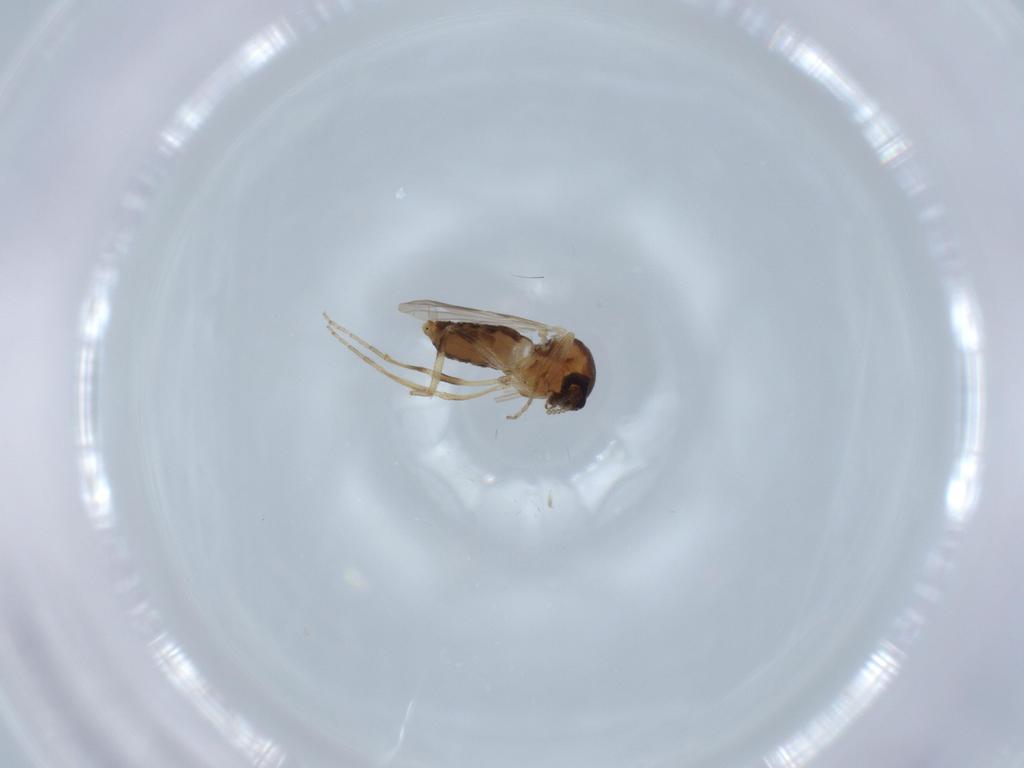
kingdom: Animalia
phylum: Arthropoda
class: Insecta
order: Diptera
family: Ceratopogonidae
